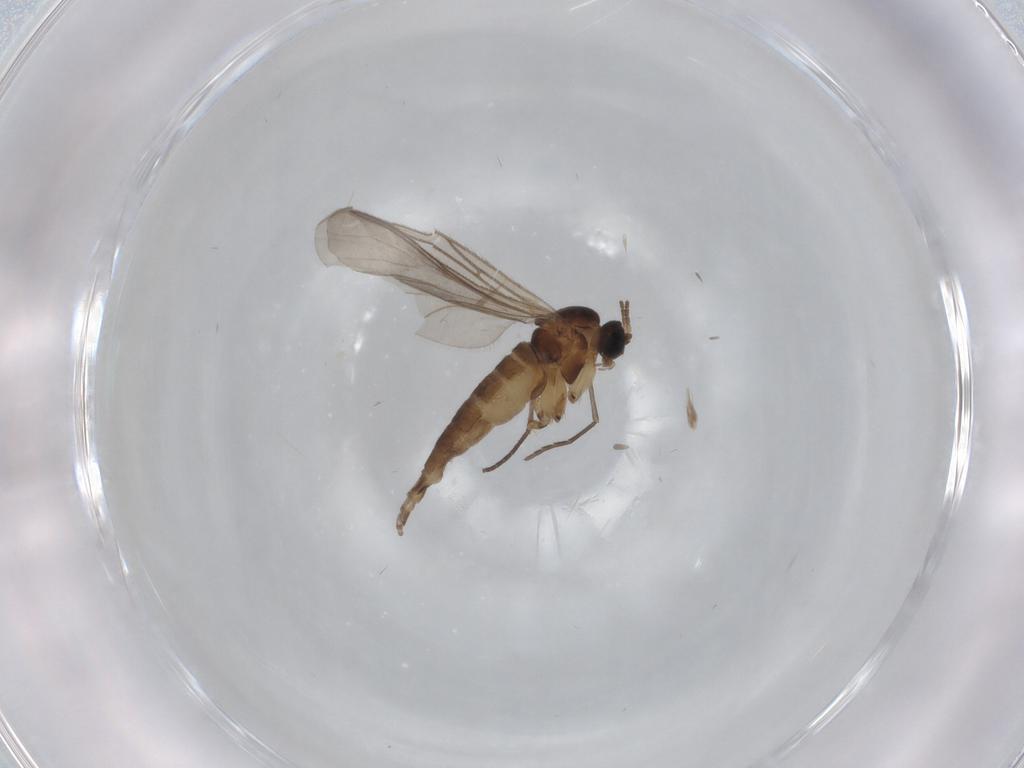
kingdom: Animalia
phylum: Arthropoda
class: Insecta
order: Diptera
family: Sciaridae
